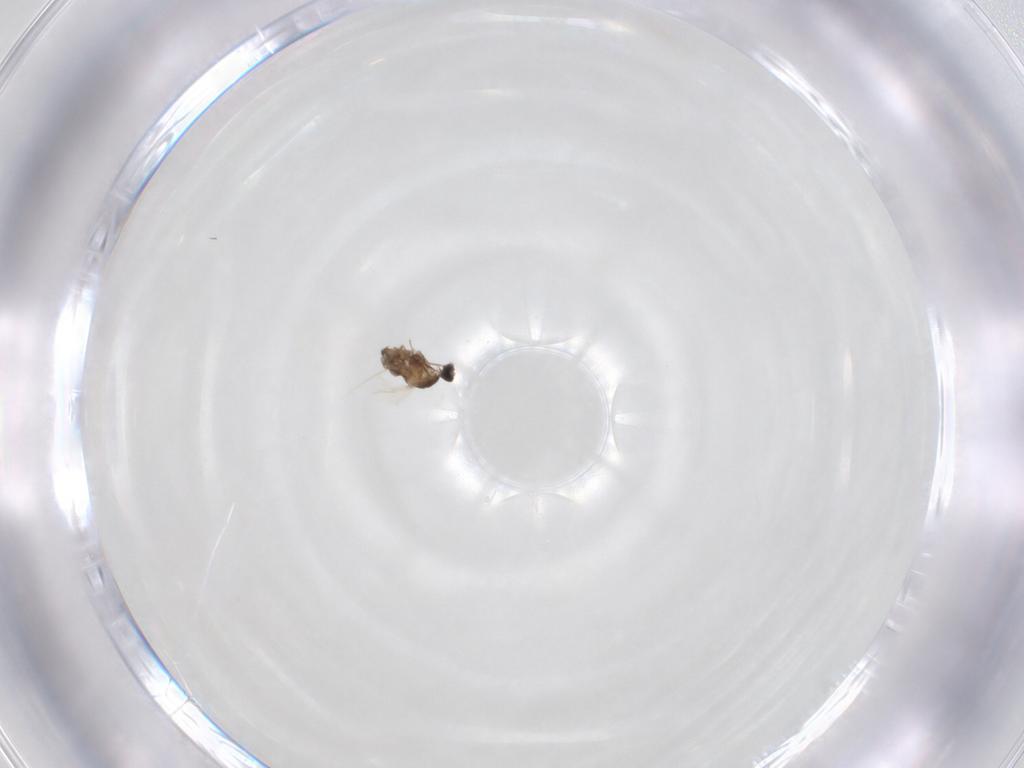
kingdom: Animalia
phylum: Arthropoda
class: Insecta
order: Diptera
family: Cecidomyiidae
